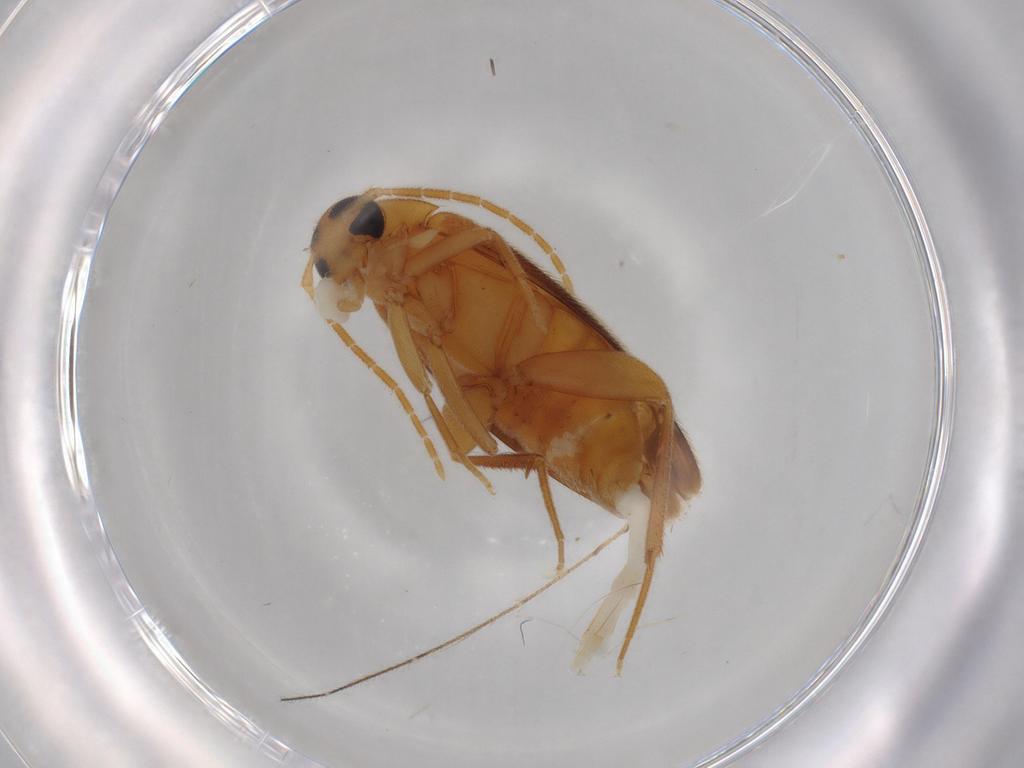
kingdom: Animalia
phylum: Arthropoda
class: Insecta
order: Coleoptera
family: Scraptiidae
